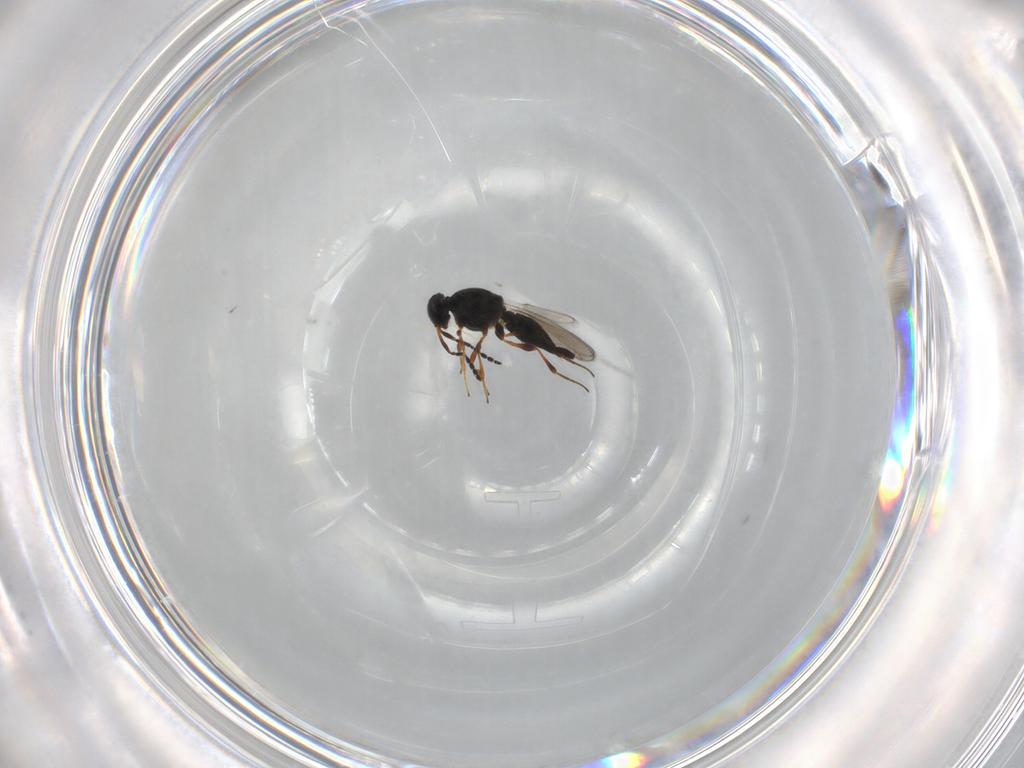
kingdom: Animalia
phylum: Arthropoda
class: Insecta
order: Hymenoptera
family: Platygastridae
